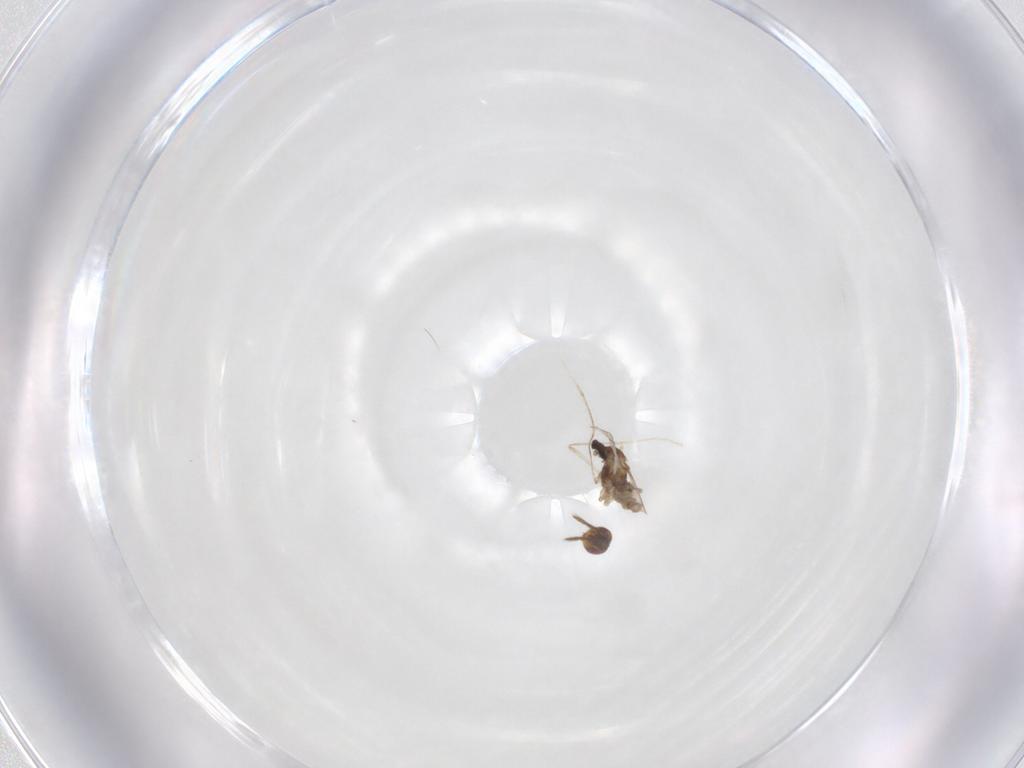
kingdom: Animalia
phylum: Arthropoda
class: Insecta
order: Diptera
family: Cecidomyiidae
